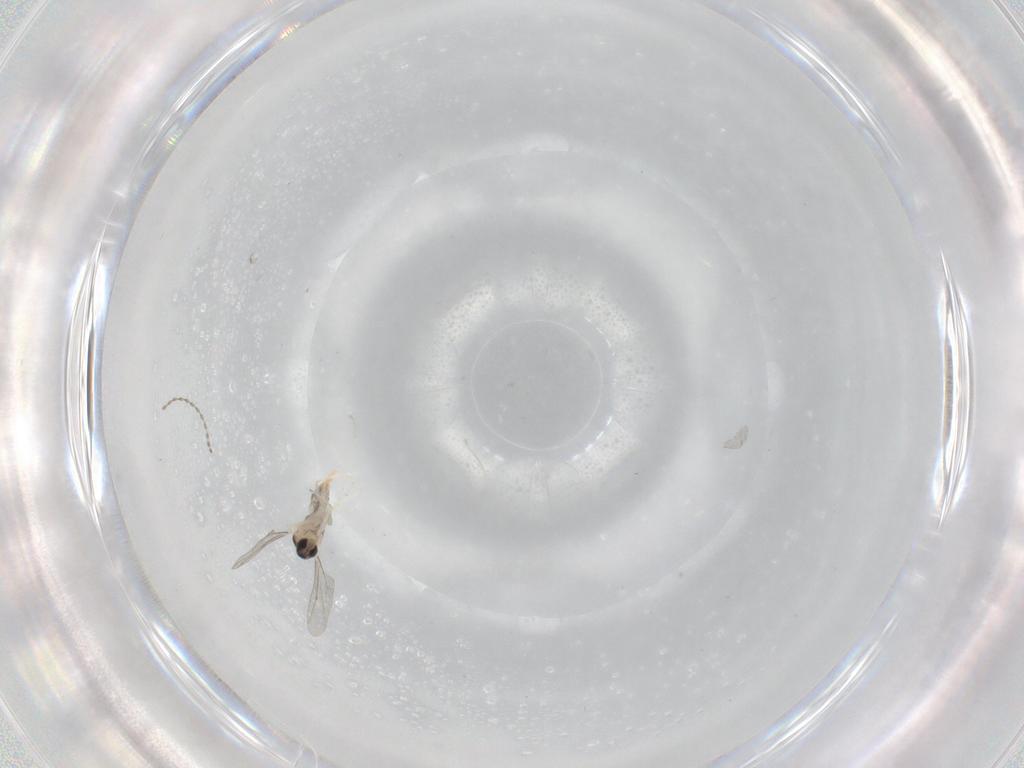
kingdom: Animalia
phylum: Arthropoda
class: Insecta
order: Diptera
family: Cecidomyiidae
